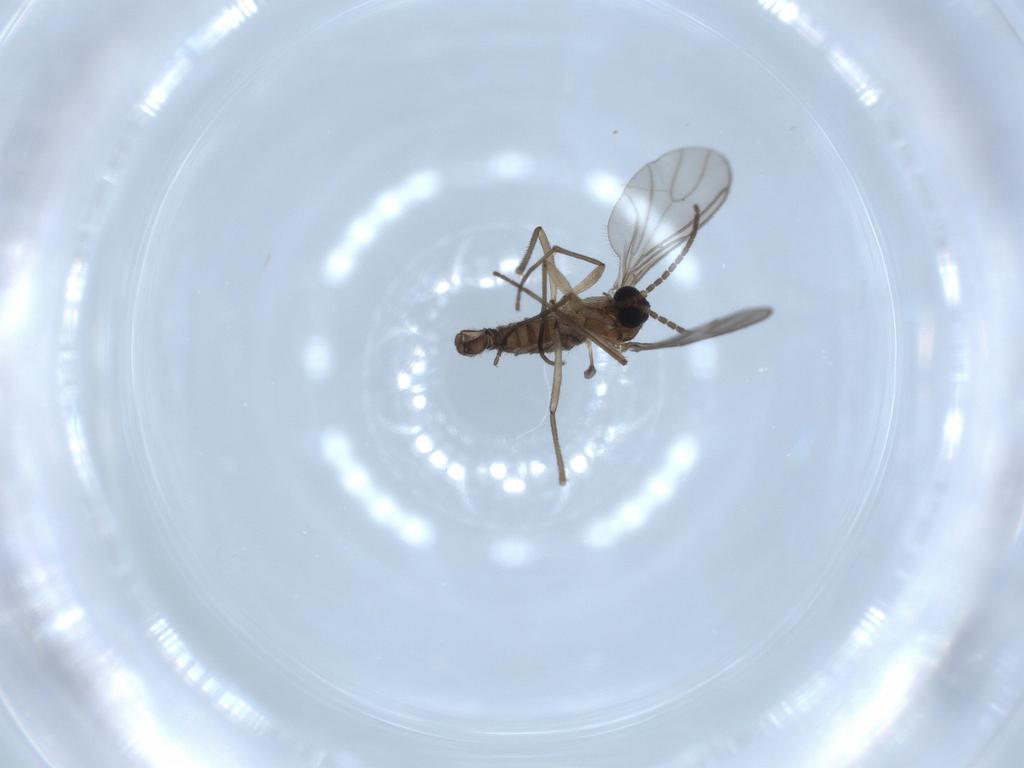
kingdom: Animalia
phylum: Arthropoda
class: Insecta
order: Diptera
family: Sciaridae
